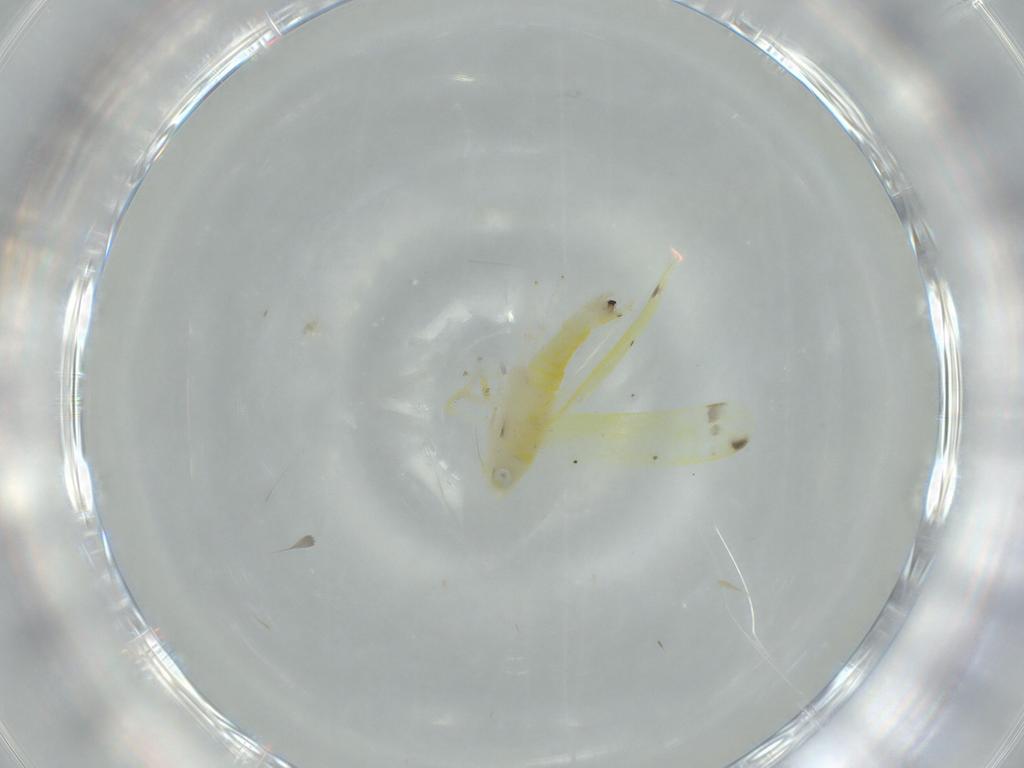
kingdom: Animalia
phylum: Arthropoda
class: Insecta
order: Hemiptera
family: Cicadellidae
